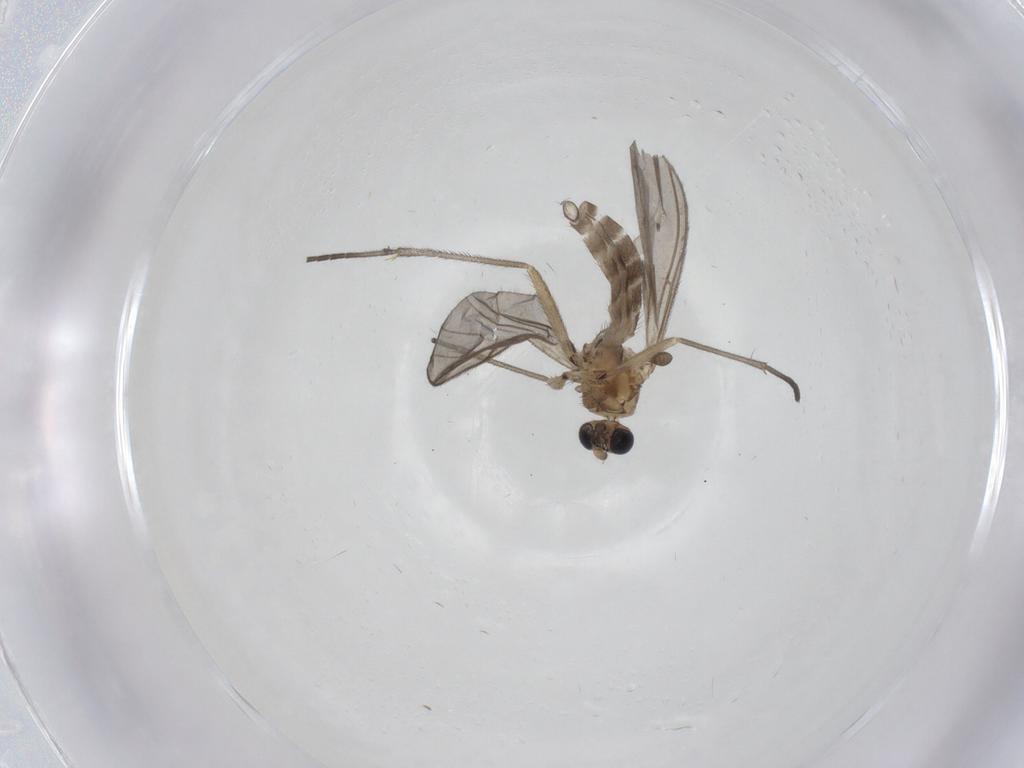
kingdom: Animalia
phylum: Arthropoda
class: Insecta
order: Diptera
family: Sciaridae
